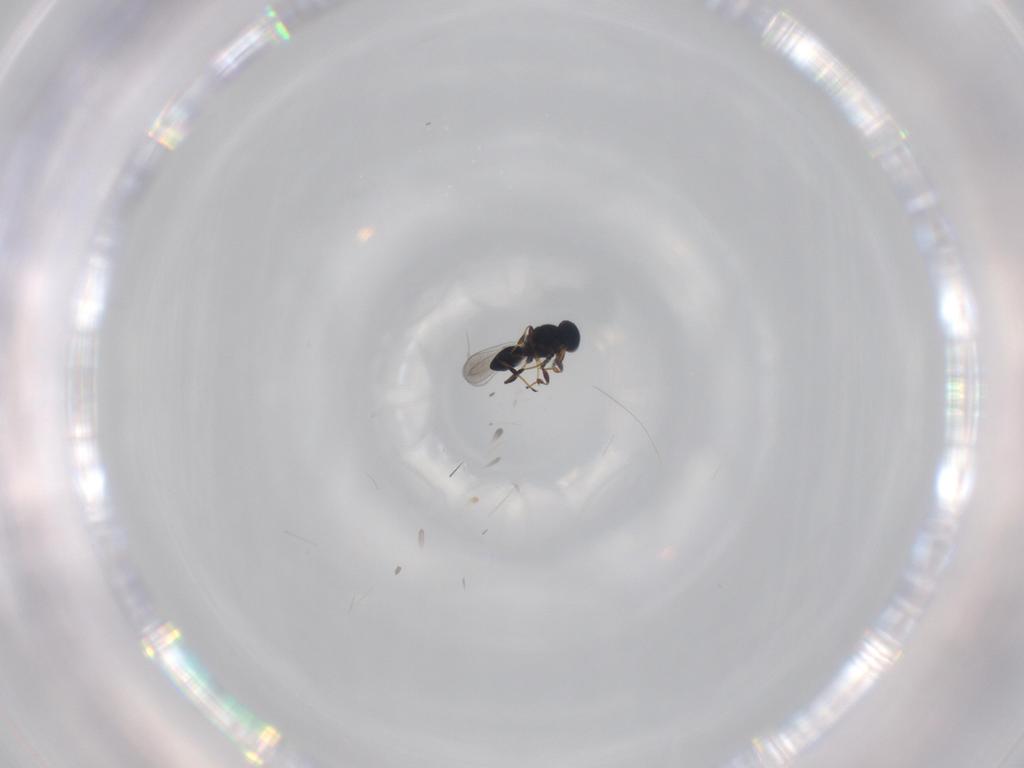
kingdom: Animalia
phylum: Arthropoda
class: Insecta
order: Hymenoptera
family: Platygastridae
